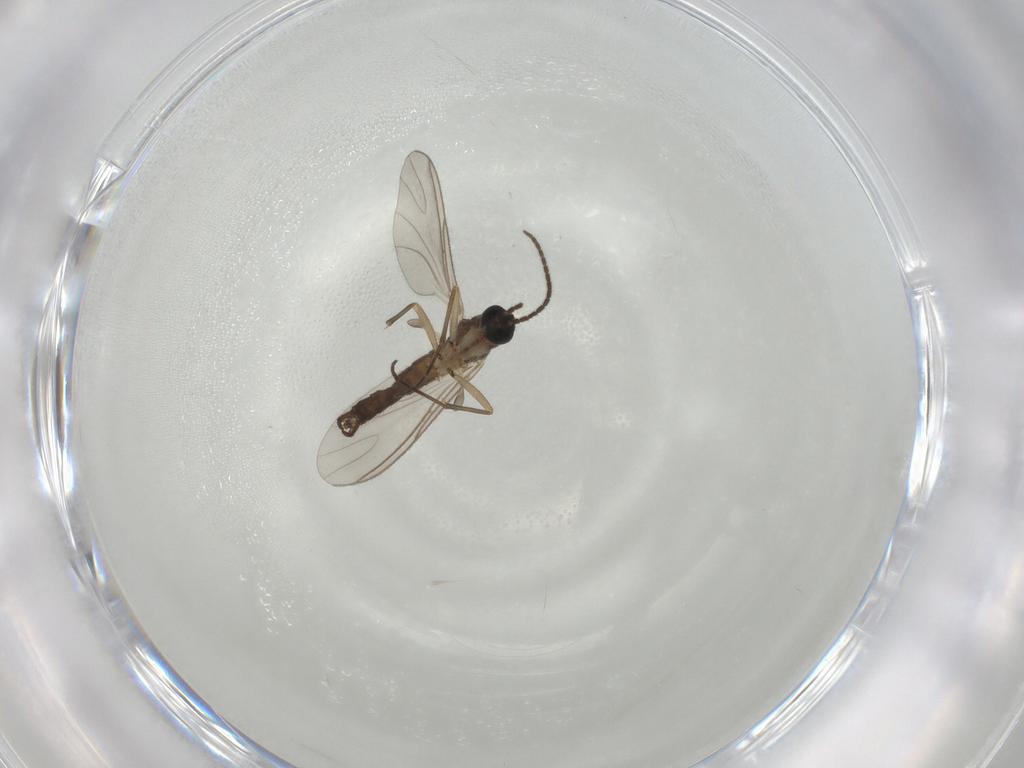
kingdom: Animalia
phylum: Arthropoda
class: Insecta
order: Diptera
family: Sciaridae
